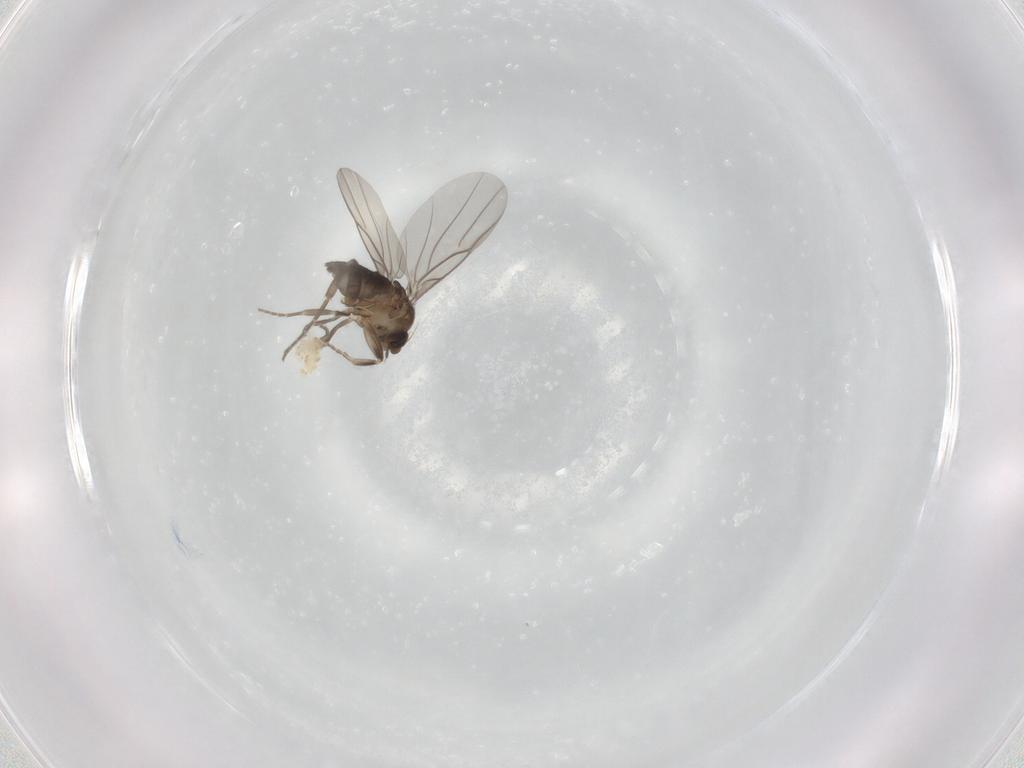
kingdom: Animalia
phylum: Arthropoda
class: Insecta
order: Diptera
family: Phoridae
